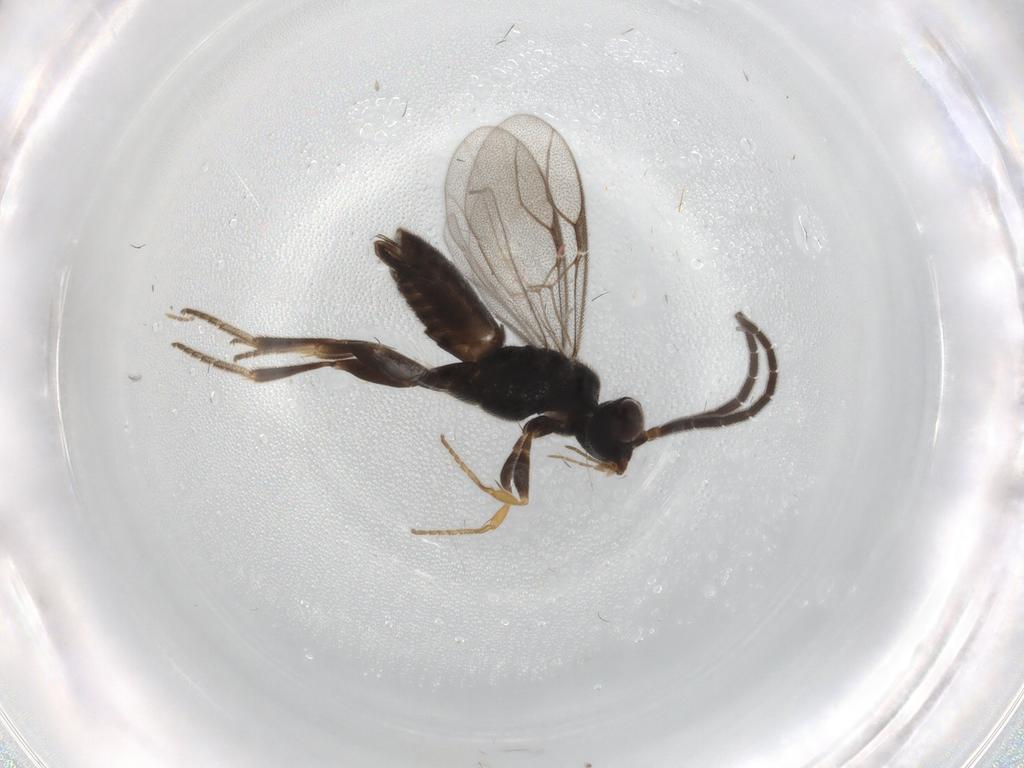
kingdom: Animalia
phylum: Arthropoda
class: Insecta
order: Hymenoptera
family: Dryinidae
